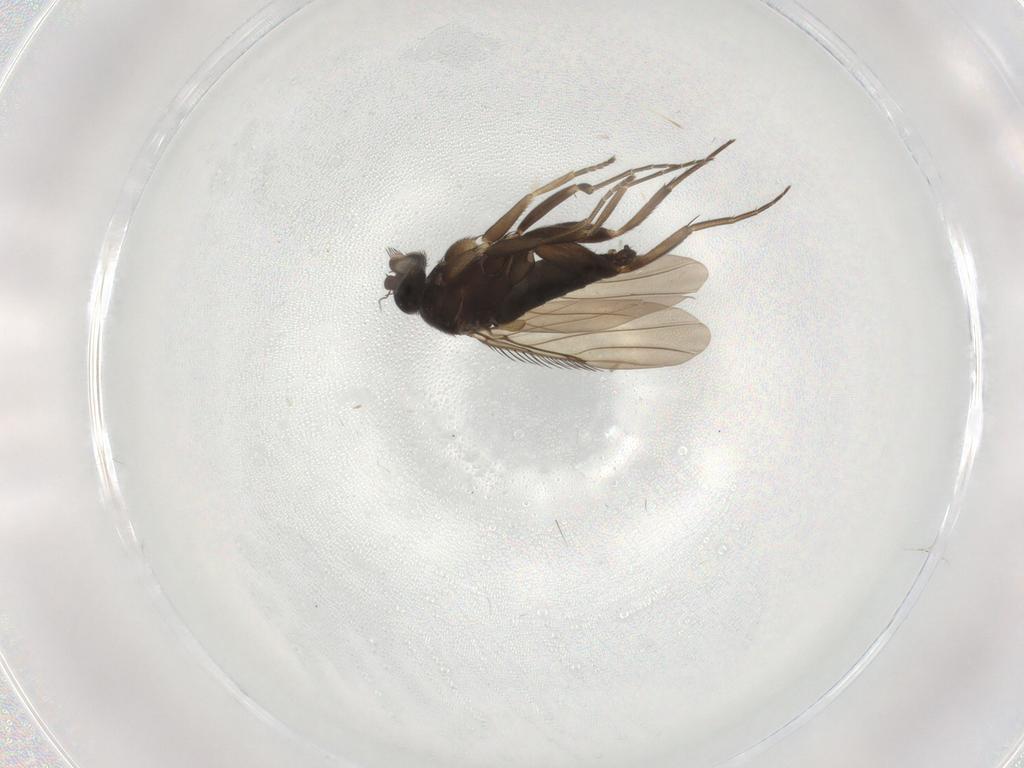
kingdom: Animalia
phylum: Arthropoda
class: Insecta
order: Diptera
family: Phoridae
